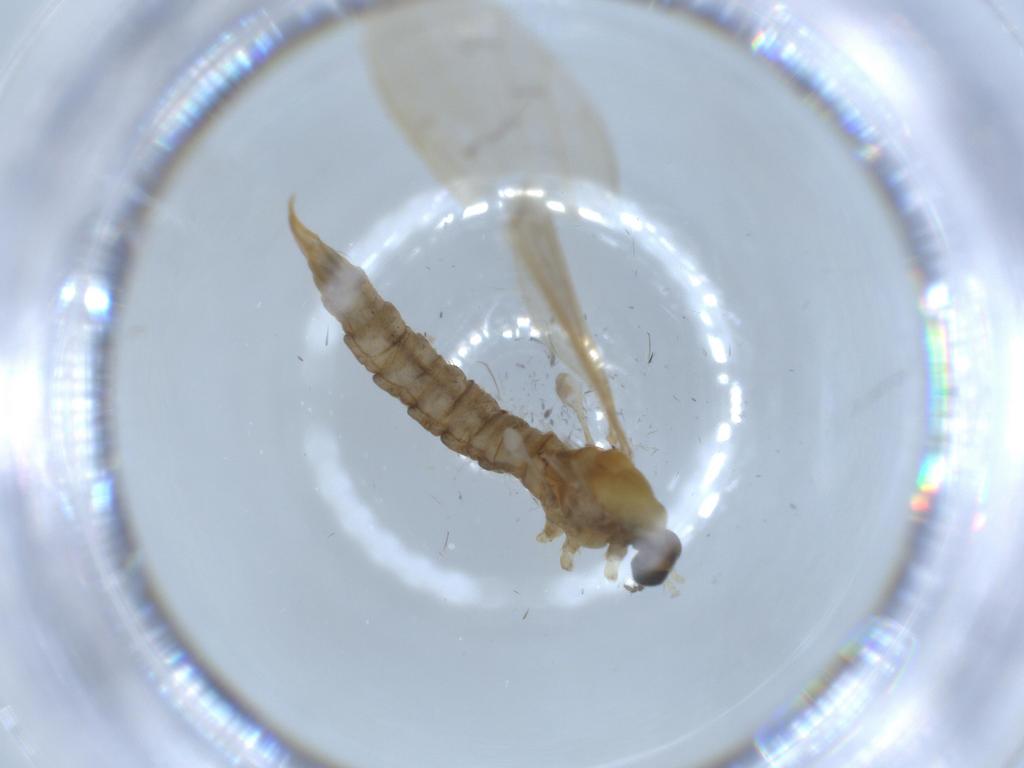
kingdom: Animalia
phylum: Arthropoda
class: Insecta
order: Diptera
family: Limoniidae
